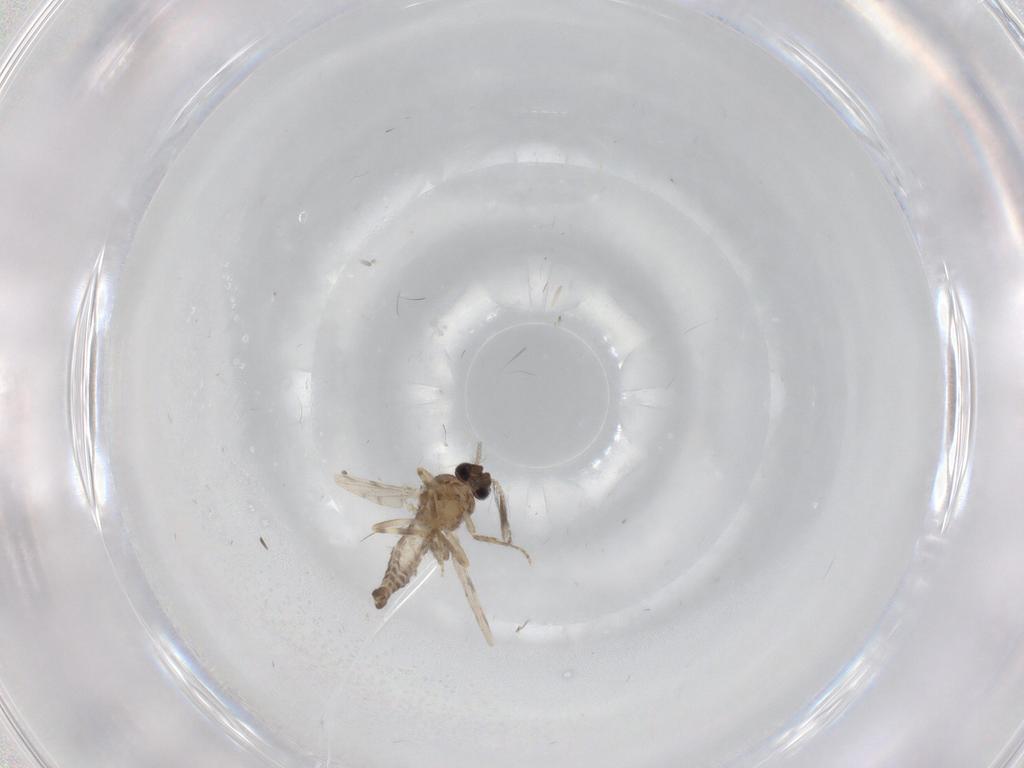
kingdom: Animalia
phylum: Arthropoda
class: Insecta
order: Diptera
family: Ceratopogonidae
